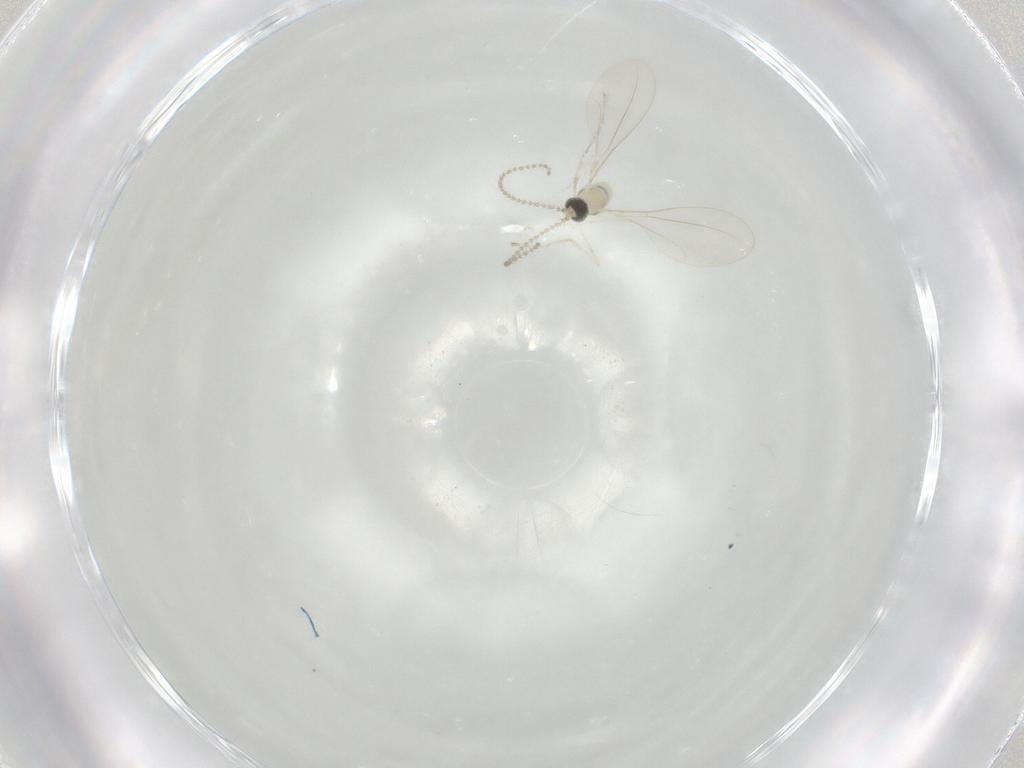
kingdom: Animalia
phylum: Arthropoda
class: Insecta
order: Diptera
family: Cecidomyiidae
